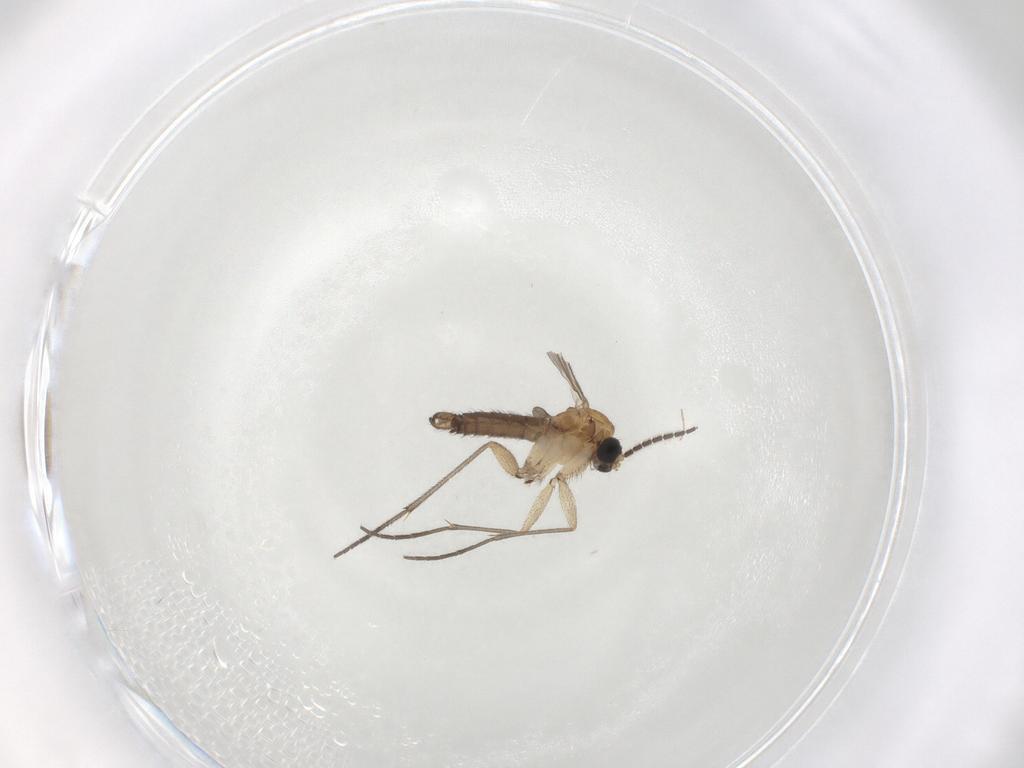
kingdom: Animalia
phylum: Arthropoda
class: Insecta
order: Diptera
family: Sciaridae
